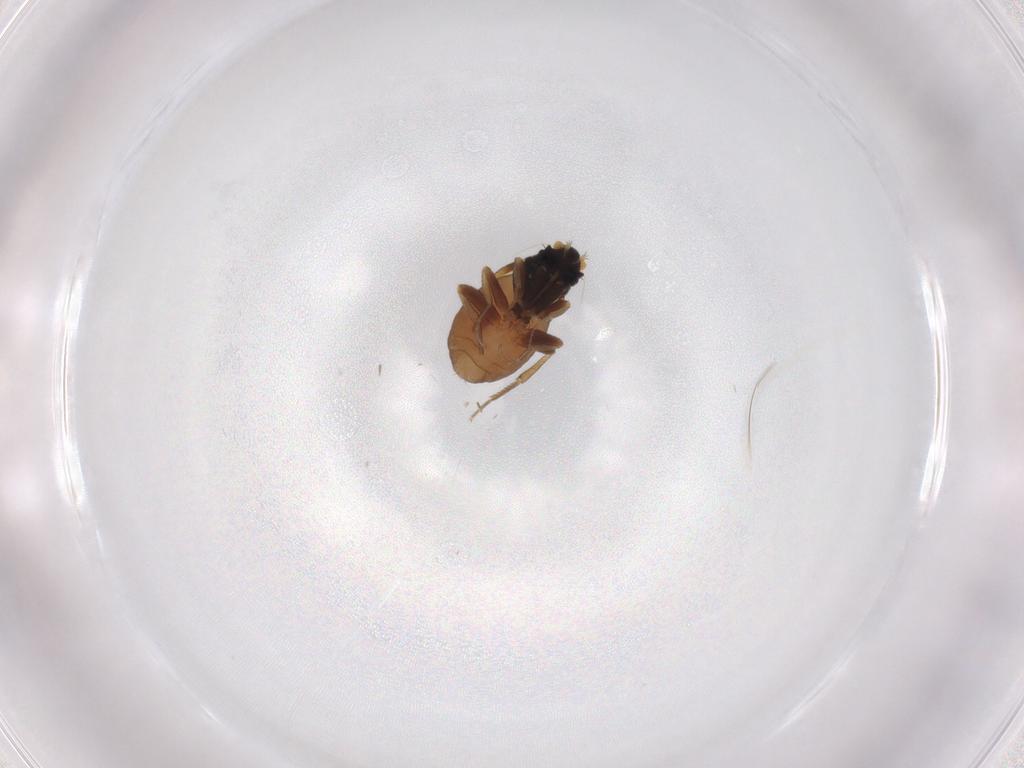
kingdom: Animalia
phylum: Arthropoda
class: Insecta
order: Diptera
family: Phoridae
